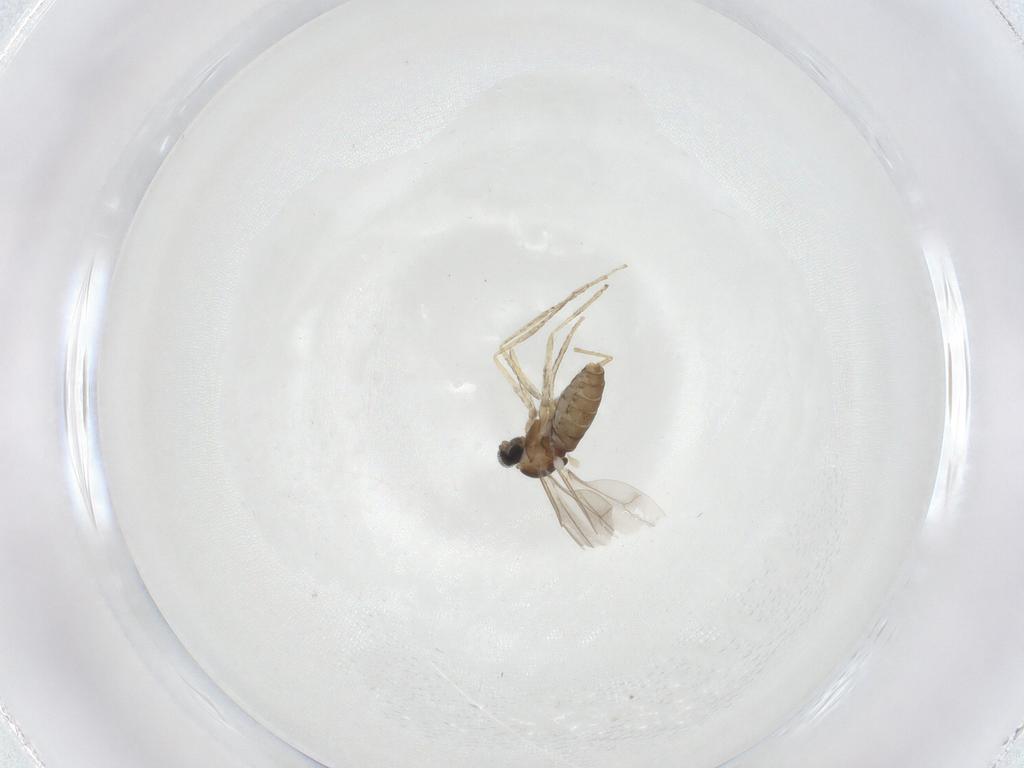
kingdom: Animalia
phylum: Arthropoda
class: Insecta
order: Diptera
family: Cecidomyiidae
